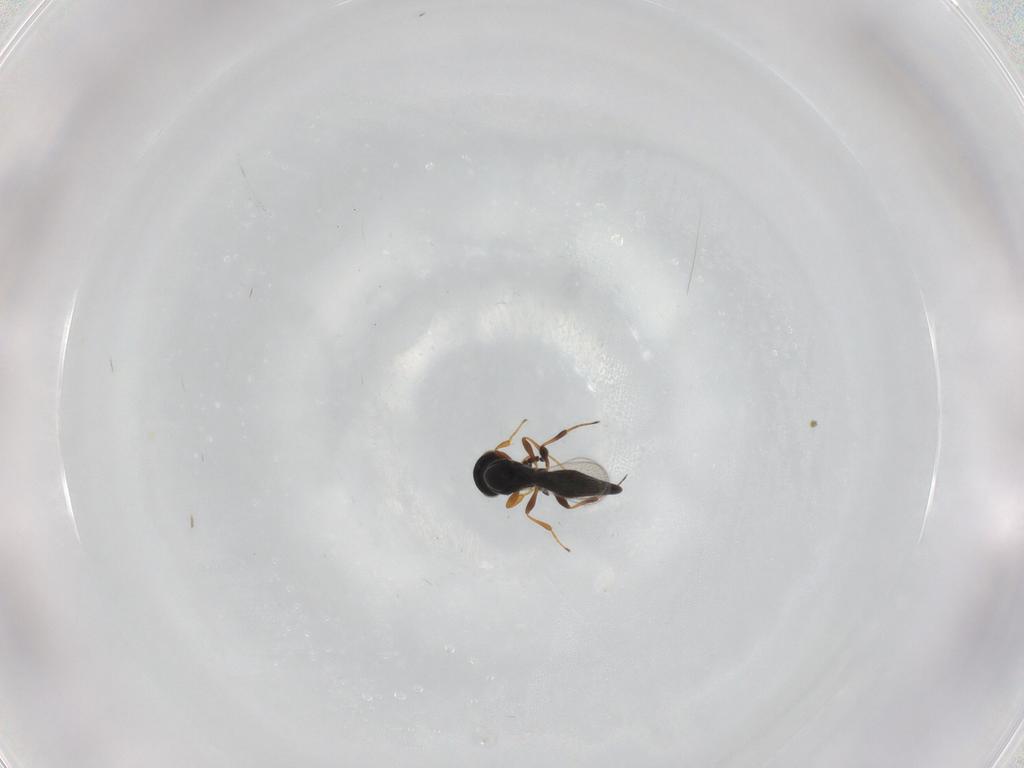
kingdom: Animalia
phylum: Arthropoda
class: Insecta
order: Hymenoptera
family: Platygastridae
